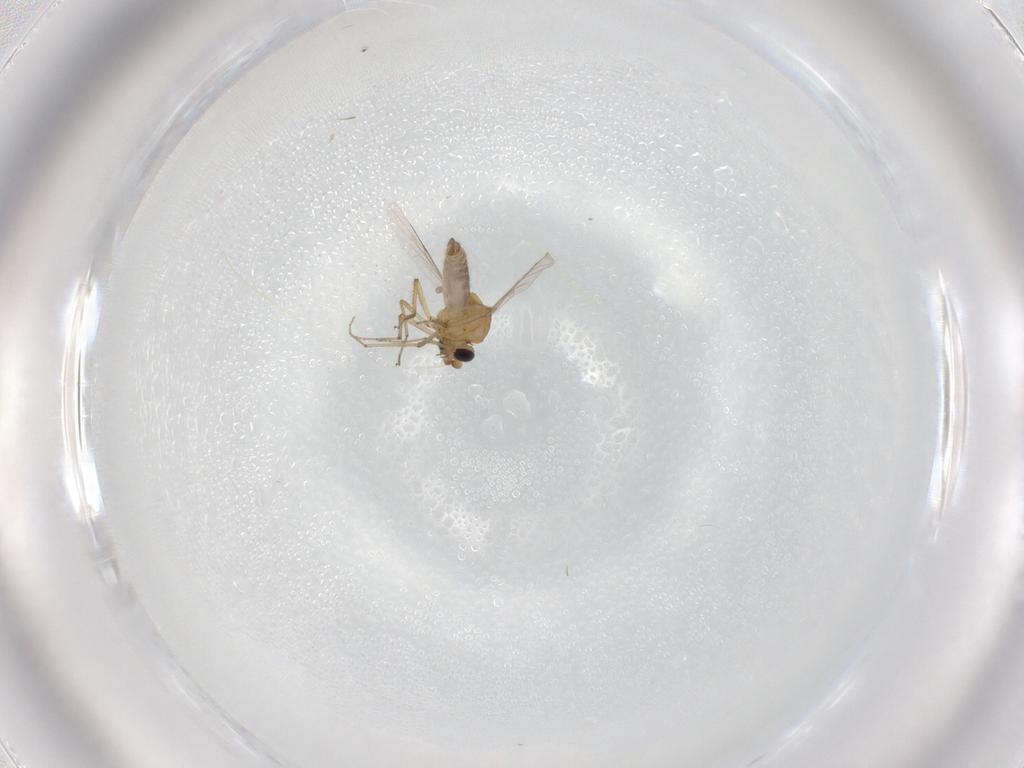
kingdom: Animalia
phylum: Arthropoda
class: Insecta
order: Diptera
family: Ceratopogonidae
